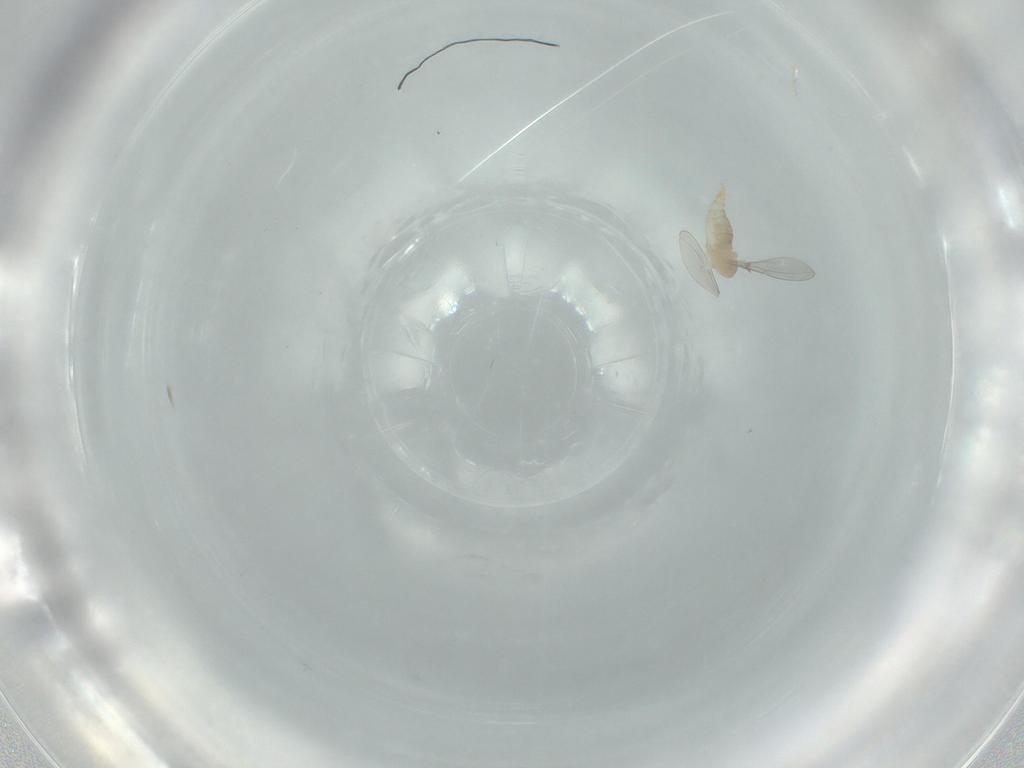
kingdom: Animalia
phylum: Arthropoda
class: Insecta
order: Diptera
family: Cecidomyiidae
